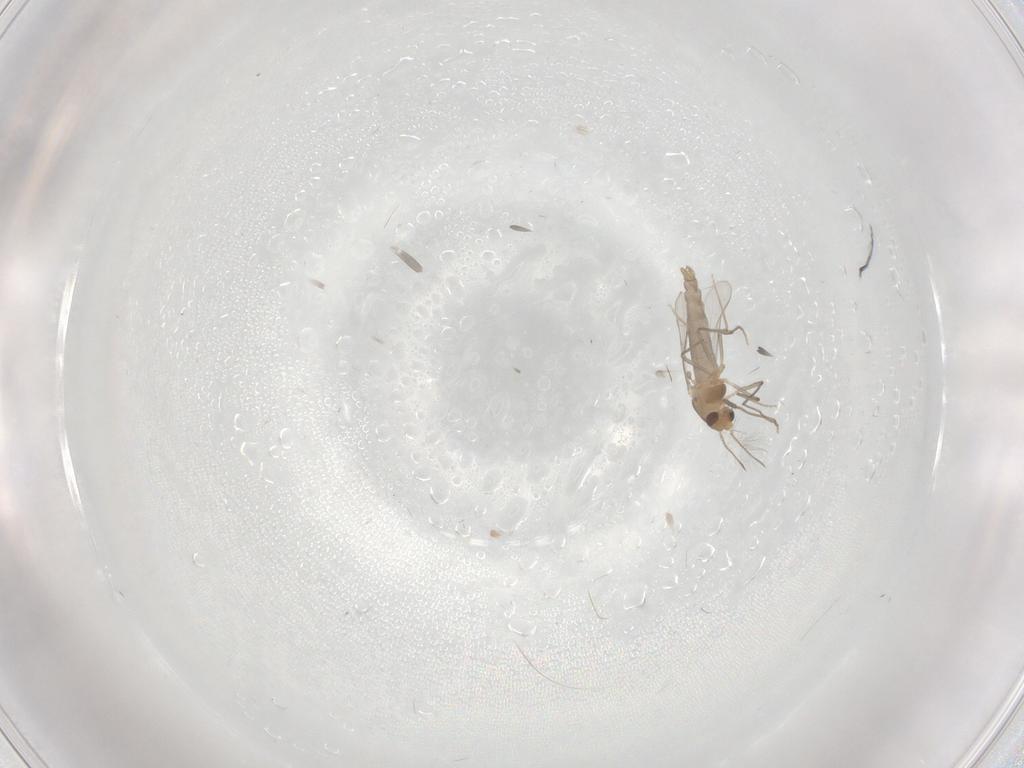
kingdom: Animalia
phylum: Arthropoda
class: Insecta
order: Diptera
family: Chironomidae
